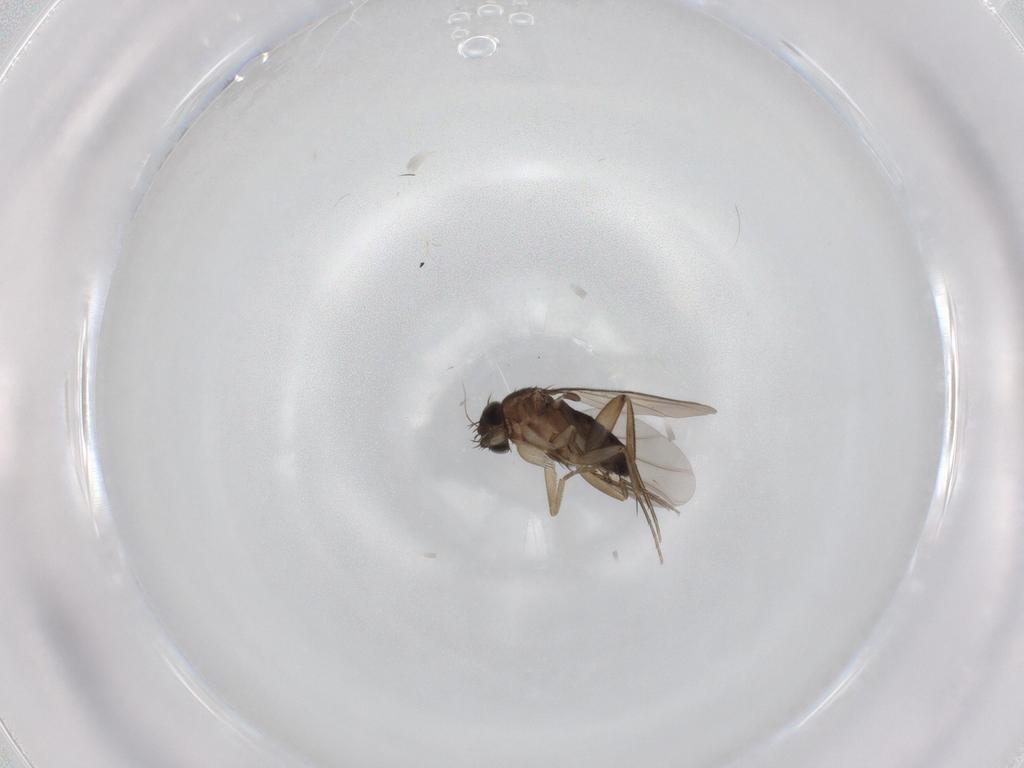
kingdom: Animalia
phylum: Arthropoda
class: Insecta
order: Diptera
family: Phoridae
